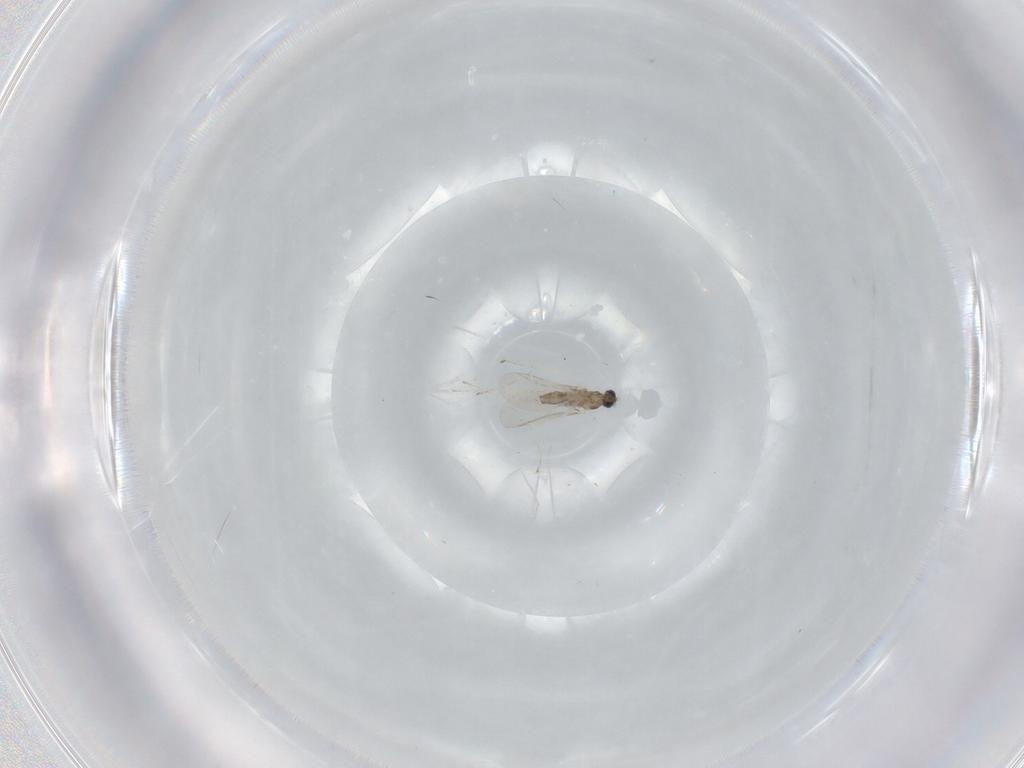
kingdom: Animalia
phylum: Arthropoda
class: Insecta
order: Diptera
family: Cecidomyiidae
